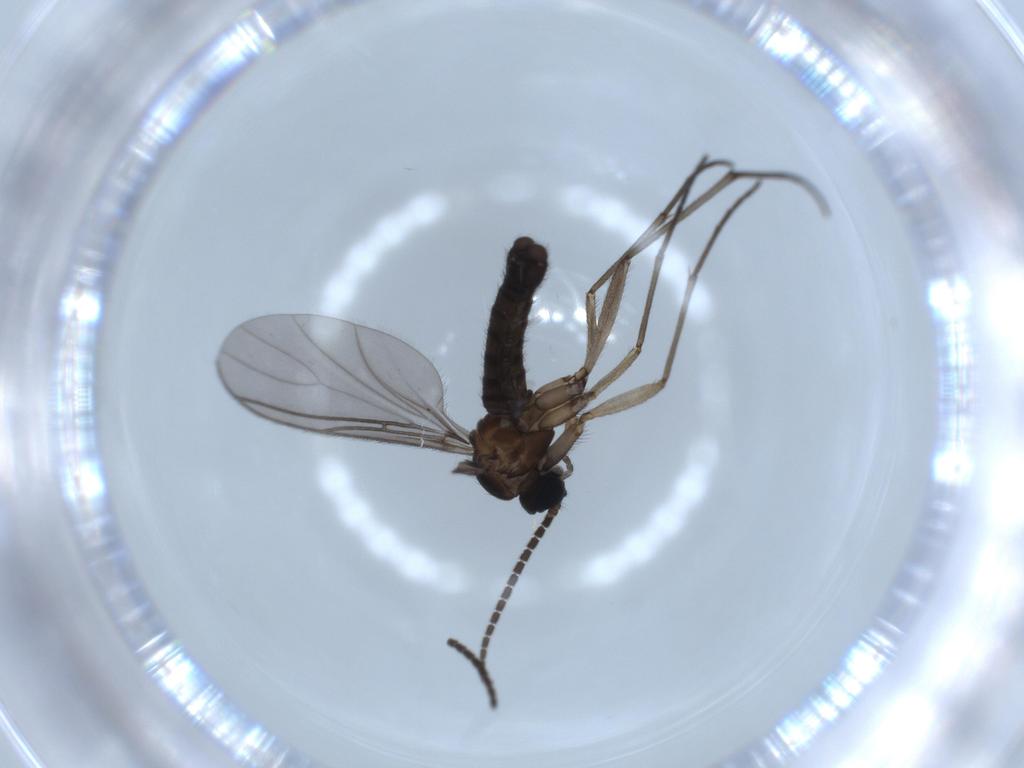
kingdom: Animalia
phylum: Arthropoda
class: Insecta
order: Diptera
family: Sciaridae
